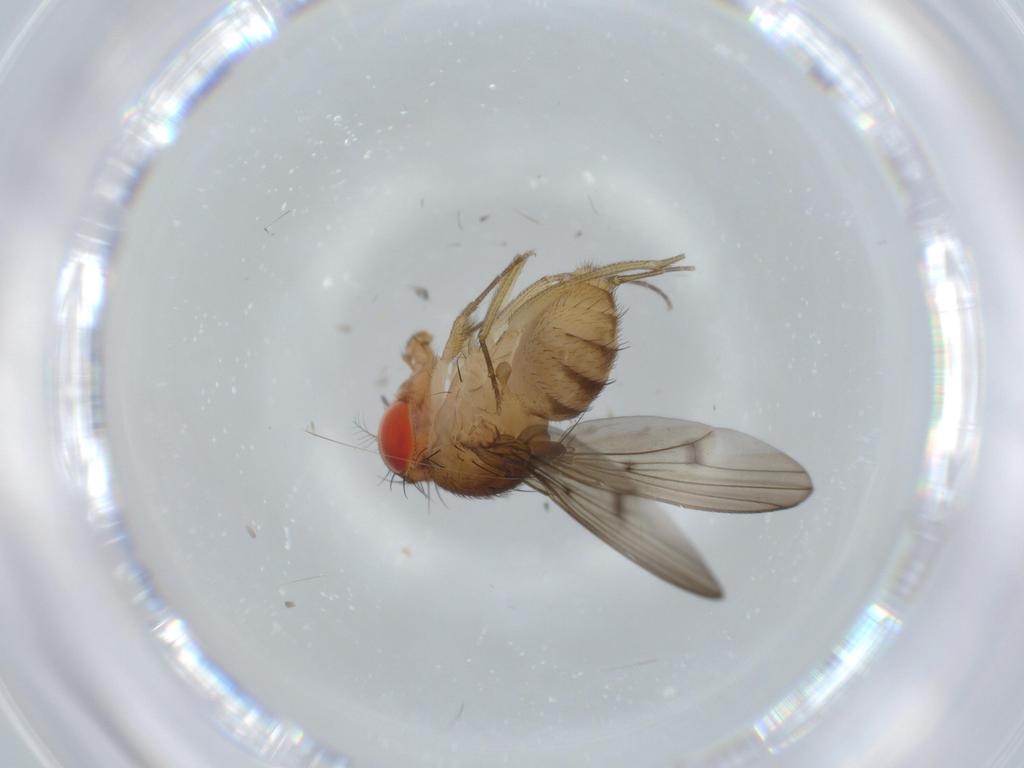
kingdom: Animalia
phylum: Arthropoda
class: Insecta
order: Diptera
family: Drosophilidae
